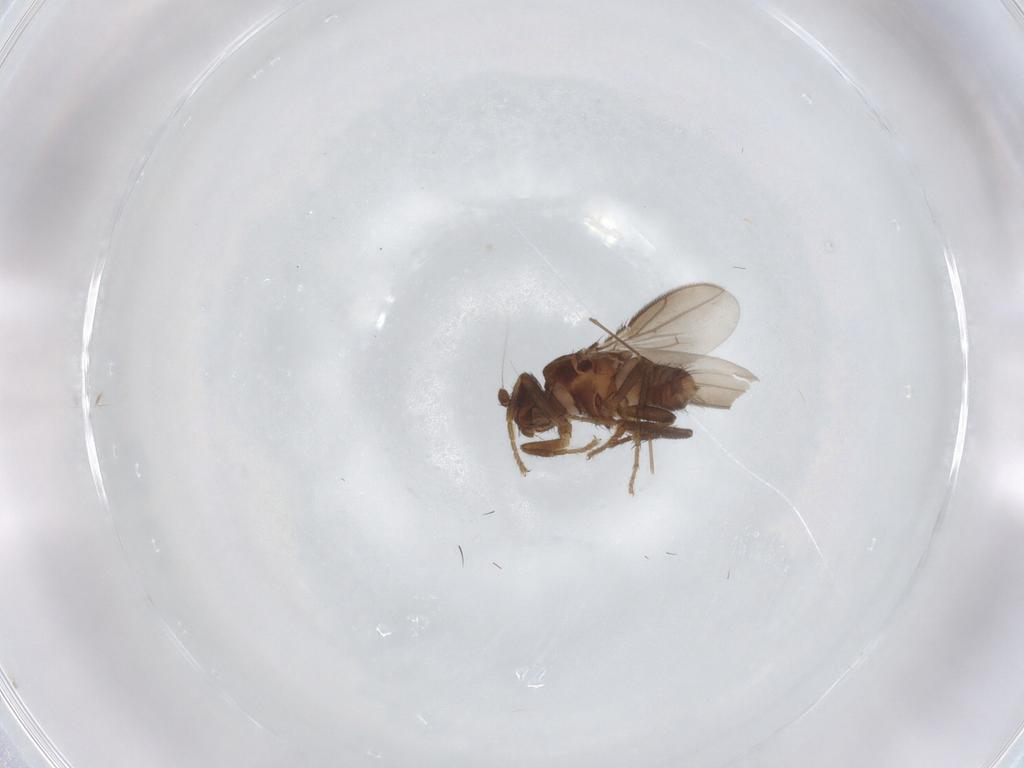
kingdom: Animalia
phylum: Arthropoda
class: Insecta
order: Diptera
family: Sphaeroceridae
